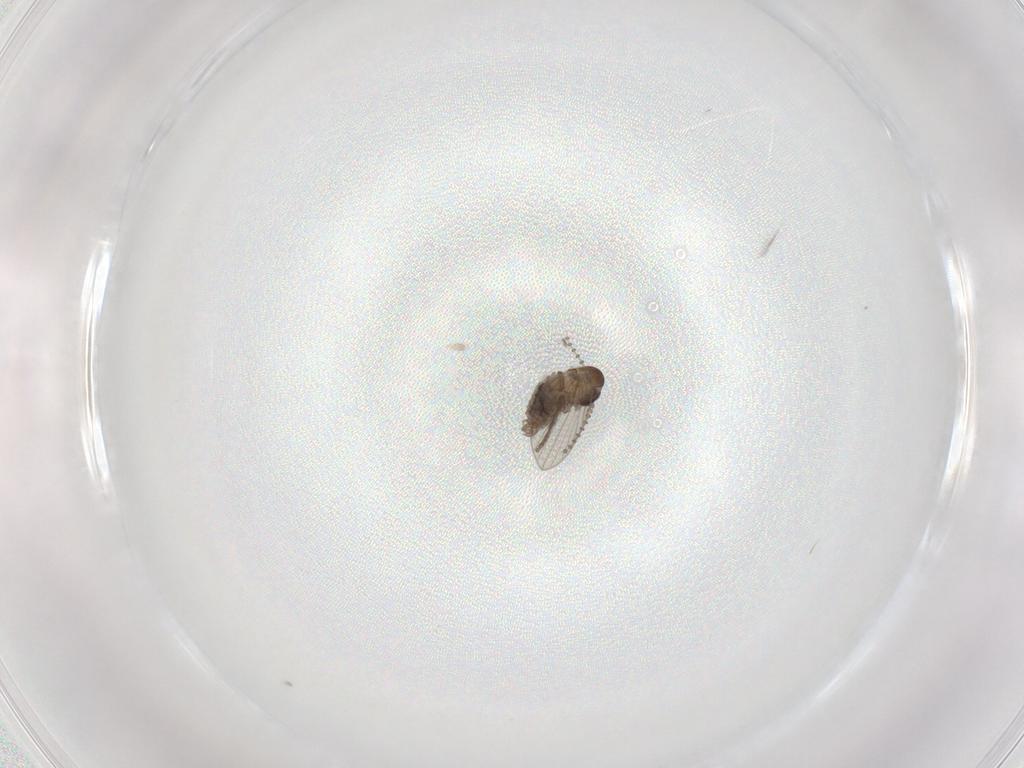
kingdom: Animalia
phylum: Arthropoda
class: Insecta
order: Diptera
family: Psychodidae
